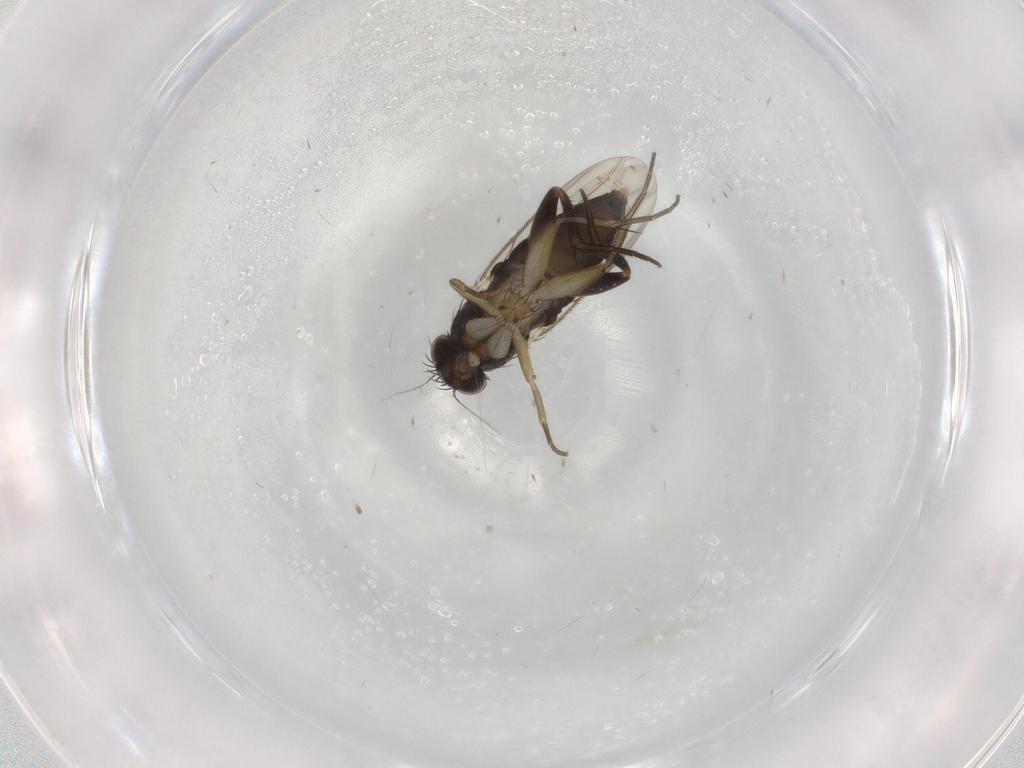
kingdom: Animalia
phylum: Arthropoda
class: Insecta
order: Diptera
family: Phoridae
